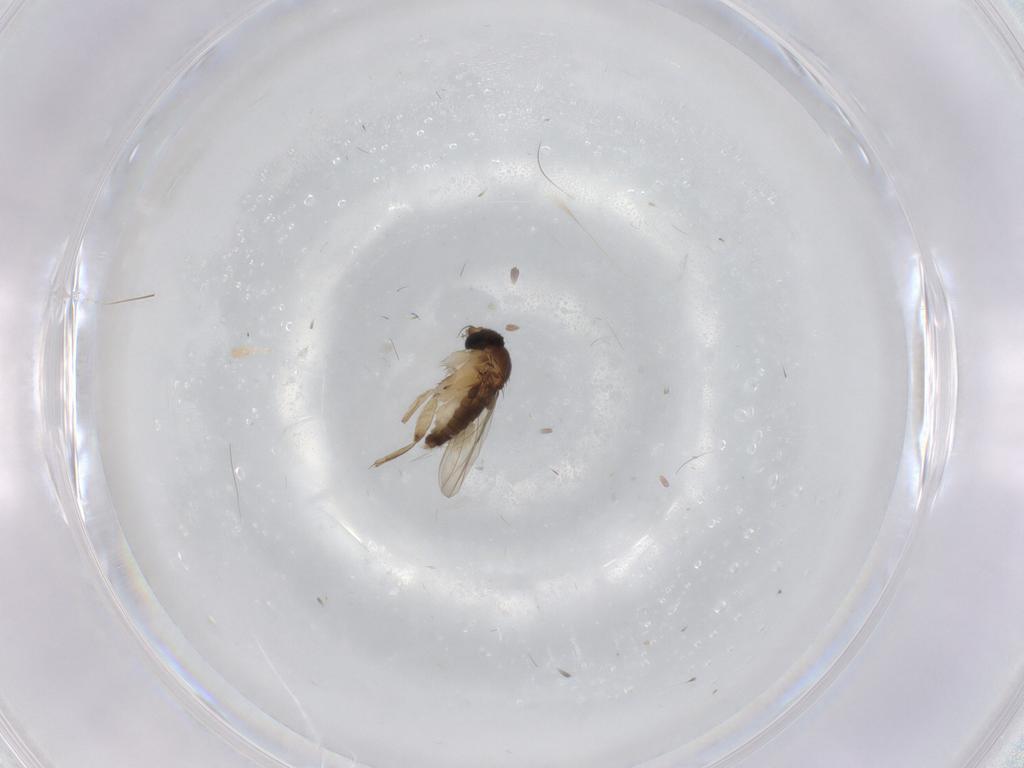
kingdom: Animalia
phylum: Arthropoda
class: Insecta
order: Diptera
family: Phoridae
